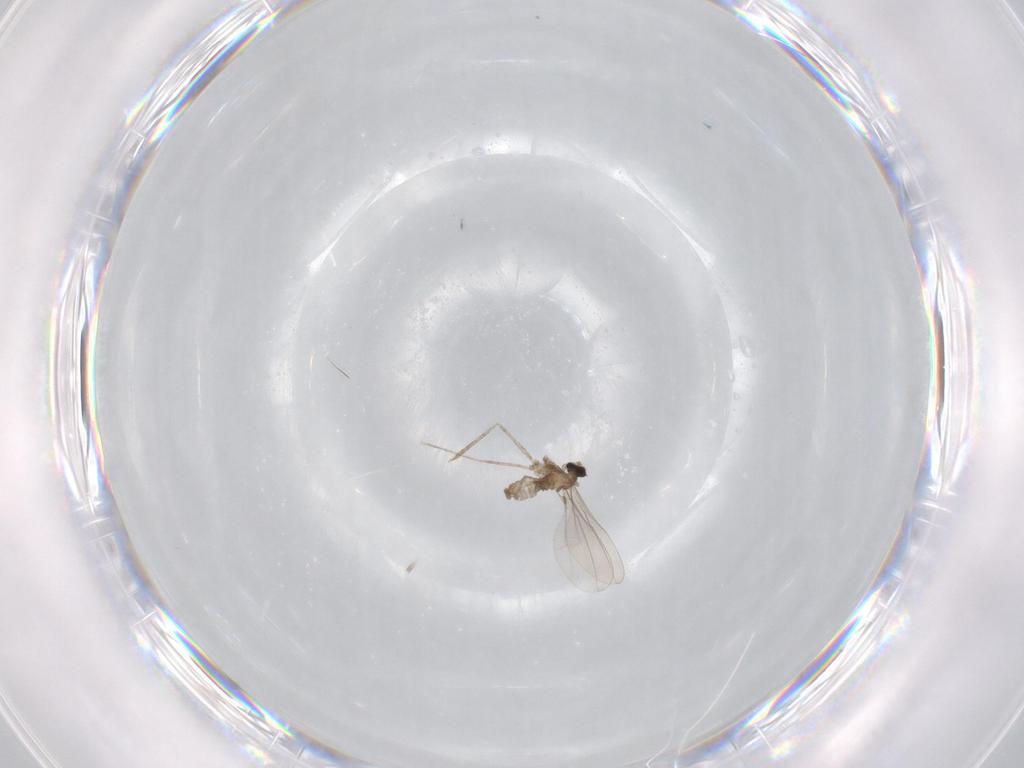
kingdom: Animalia
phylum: Arthropoda
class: Insecta
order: Diptera
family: Cecidomyiidae
